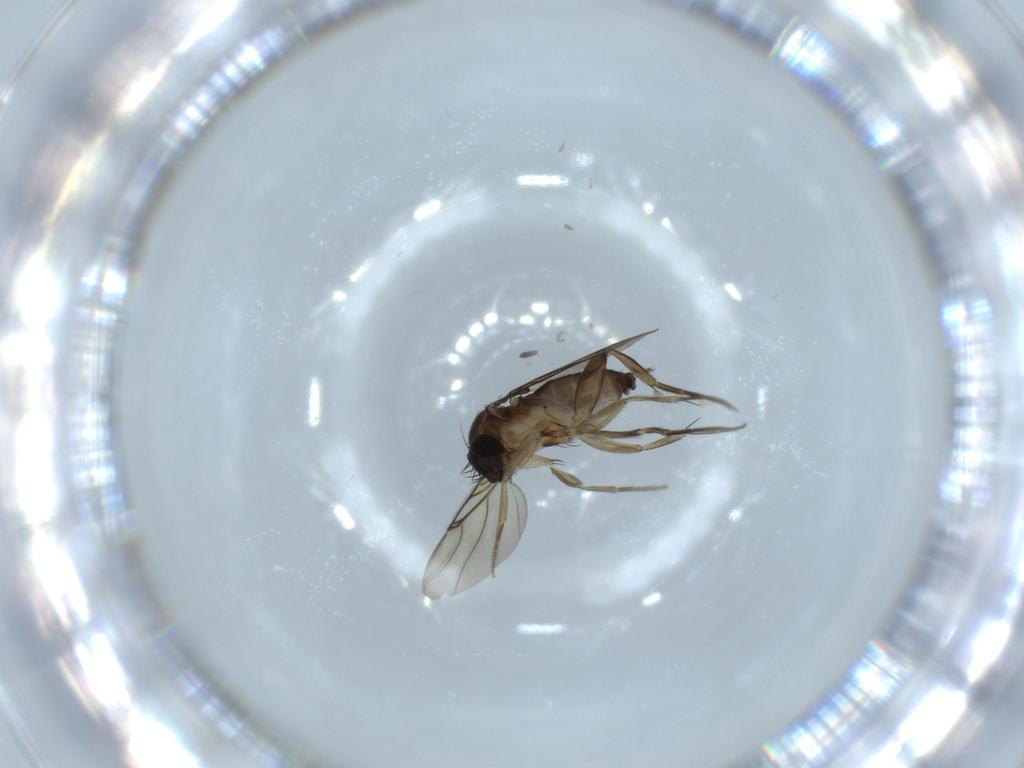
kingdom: Animalia
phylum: Arthropoda
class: Insecta
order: Diptera
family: Phoridae
